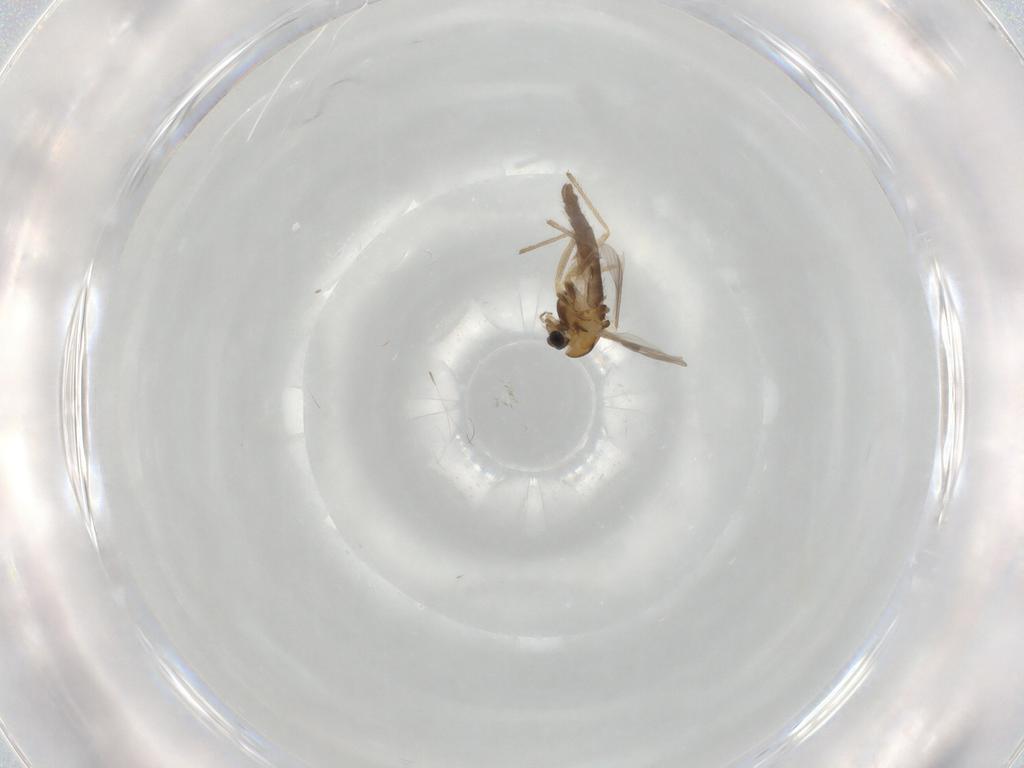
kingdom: Animalia
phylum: Arthropoda
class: Insecta
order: Diptera
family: Chironomidae
